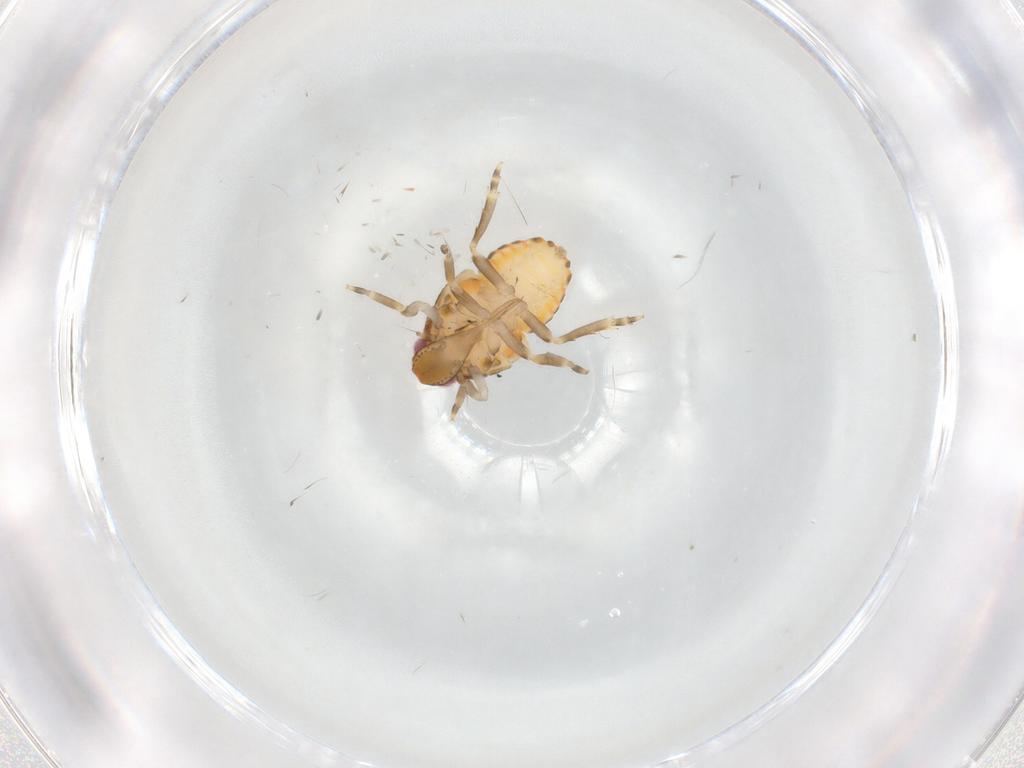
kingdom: Animalia
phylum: Arthropoda
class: Insecta
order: Hemiptera
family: Flatidae
